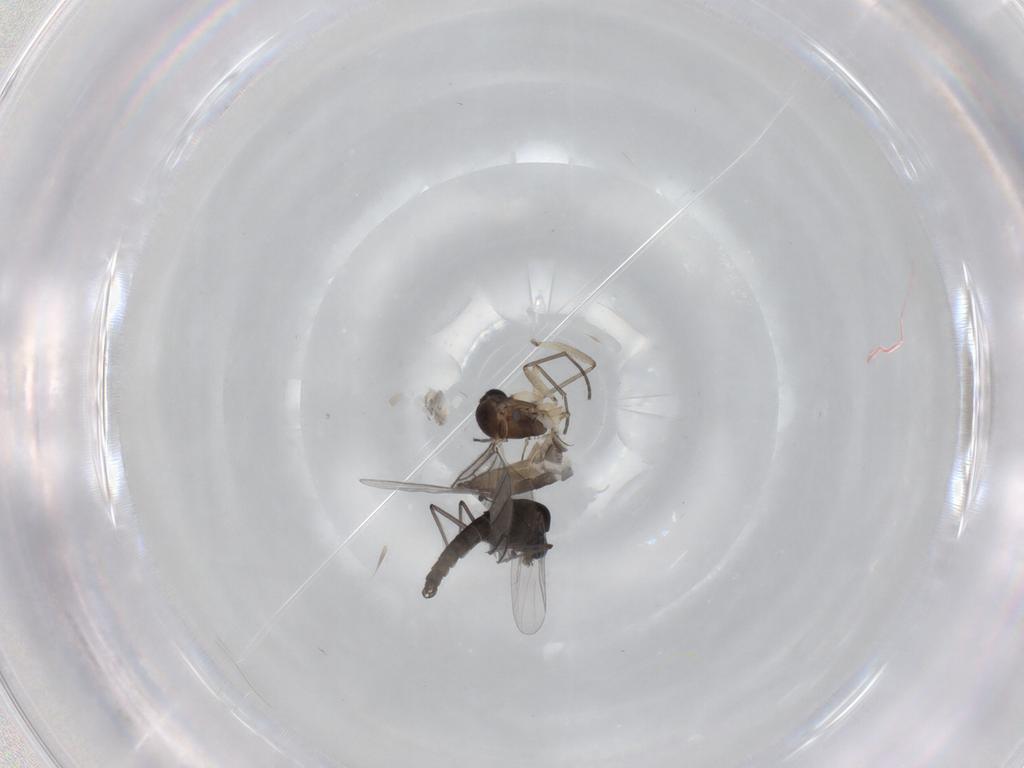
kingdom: Animalia
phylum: Arthropoda
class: Insecta
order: Diptera
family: Sciaridae
